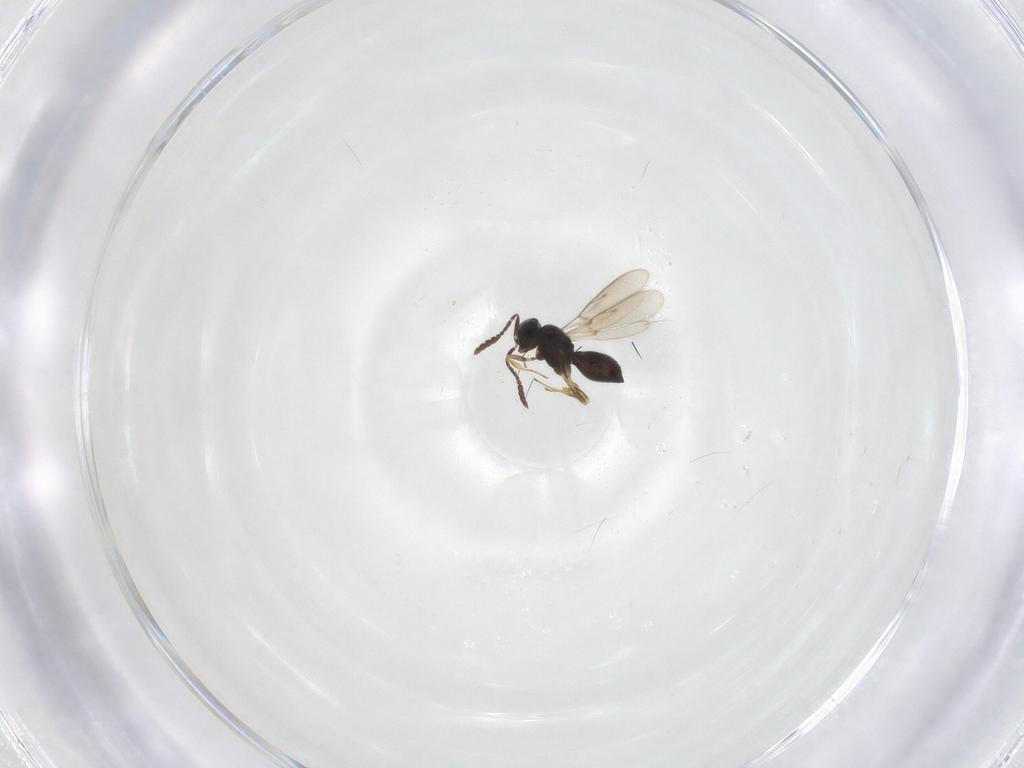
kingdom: Animalia
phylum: Arthropoda
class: Insecta
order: Hymenoptera
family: Scelionidae
